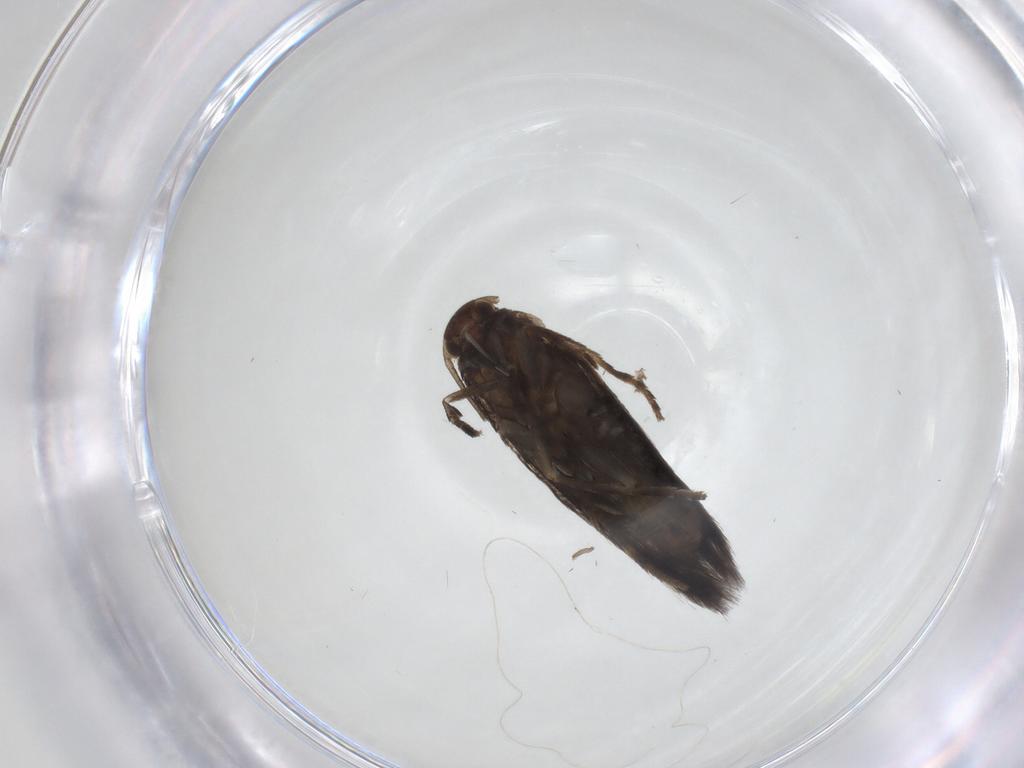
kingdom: Animalia
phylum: Arthropoda
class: Insecta
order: Lepidoptera
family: Elachistidae
